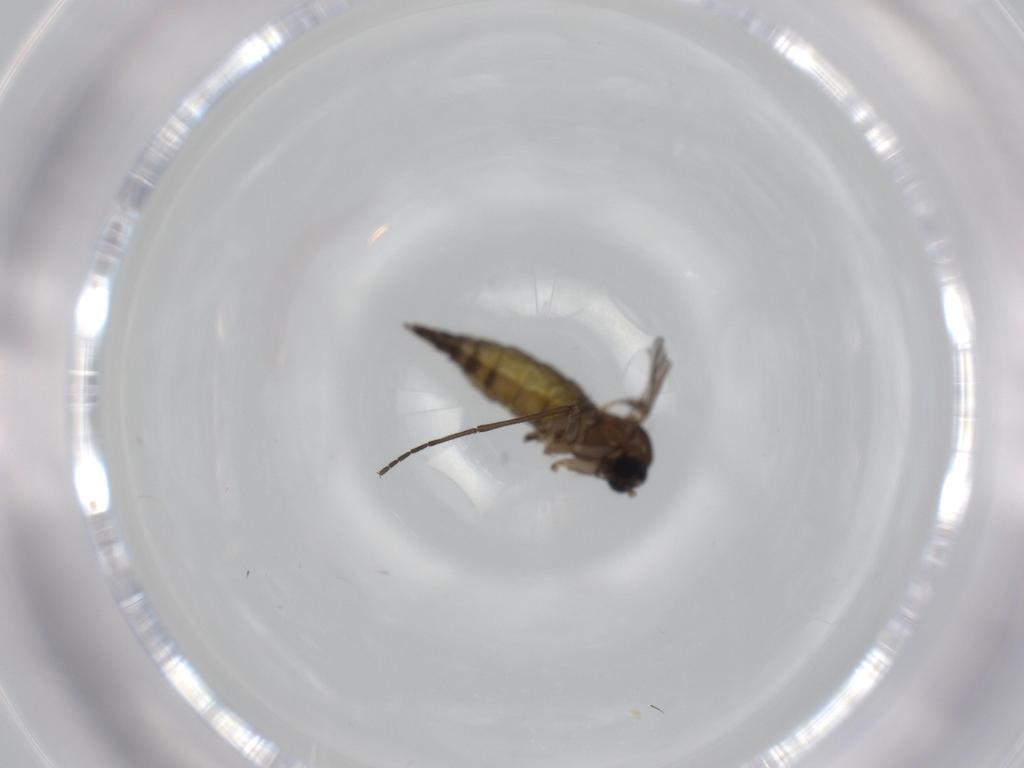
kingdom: Animalia
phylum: Arthropoda
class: Insecta
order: Diptera
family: Sciaridae
